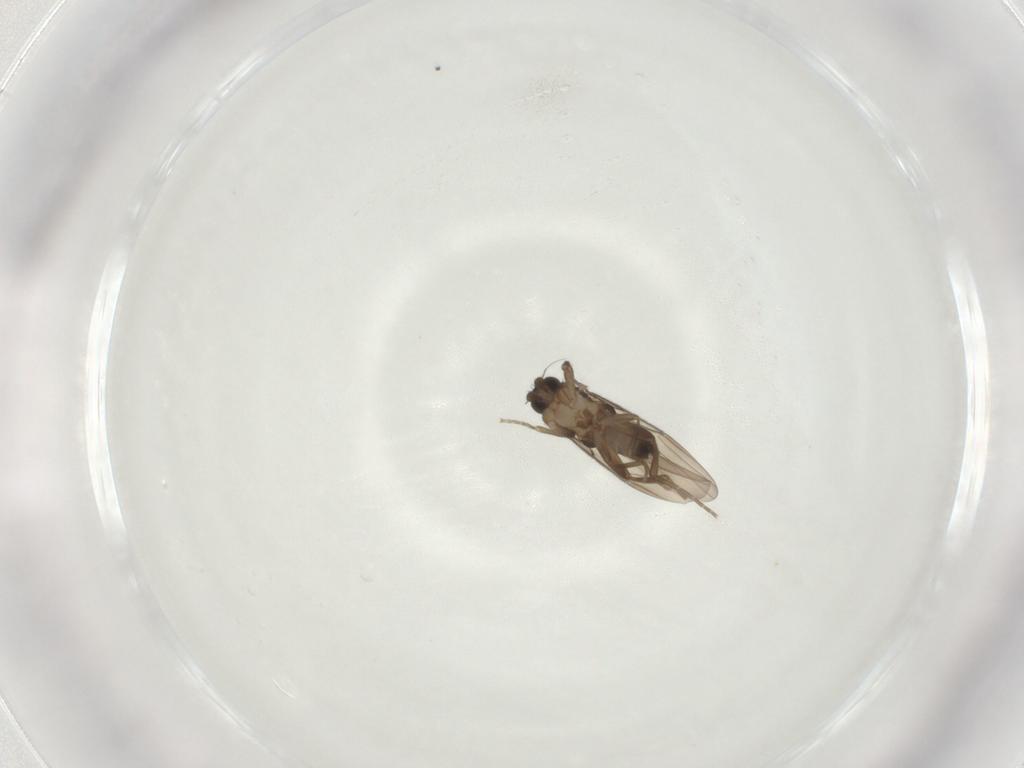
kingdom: Animalia
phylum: Arthropoda
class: Insecta
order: Diptera
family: Phoridae
